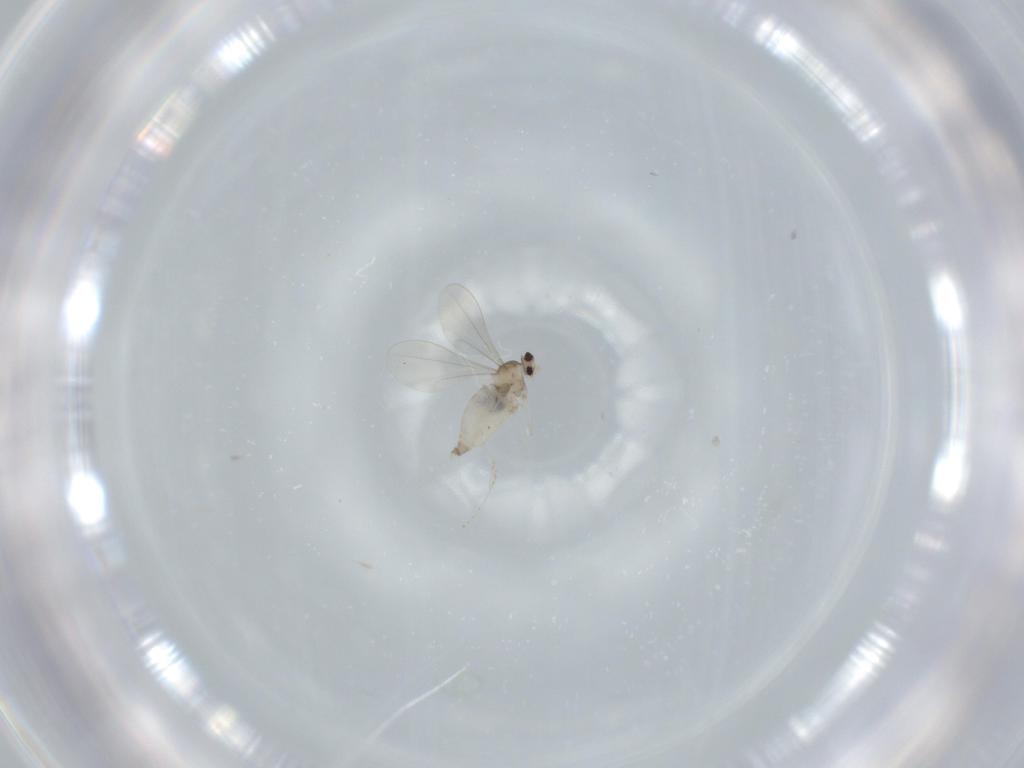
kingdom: Animalia
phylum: Arthropoda
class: Insecta
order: Diptera
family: Cecidomyiidae
